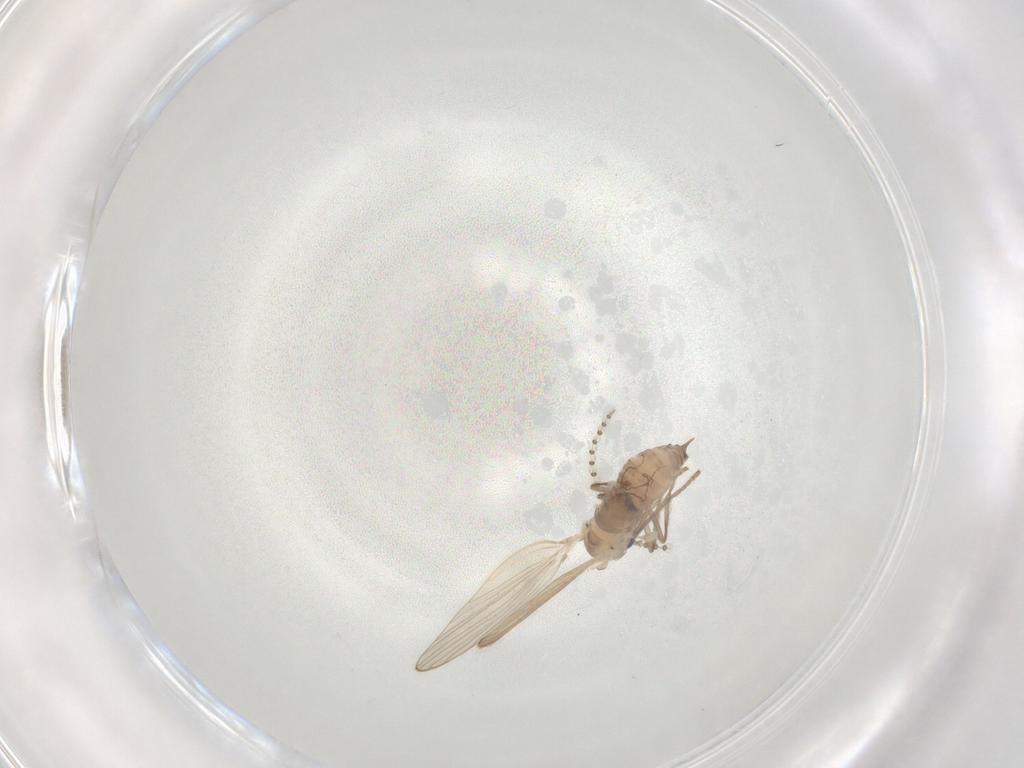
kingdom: Animalia
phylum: Arthropoda
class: Insecta
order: Diptera
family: Psychodidae
